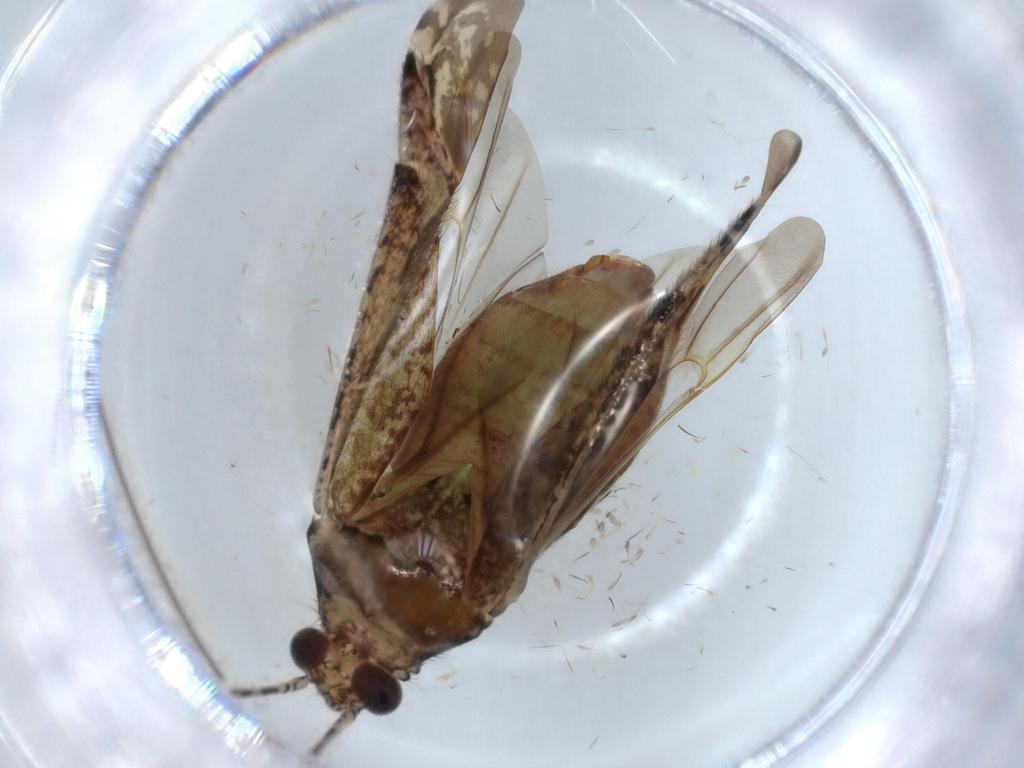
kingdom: Animalia
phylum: Arthropoda
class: Insecta
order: Hemiptera
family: Miridae
